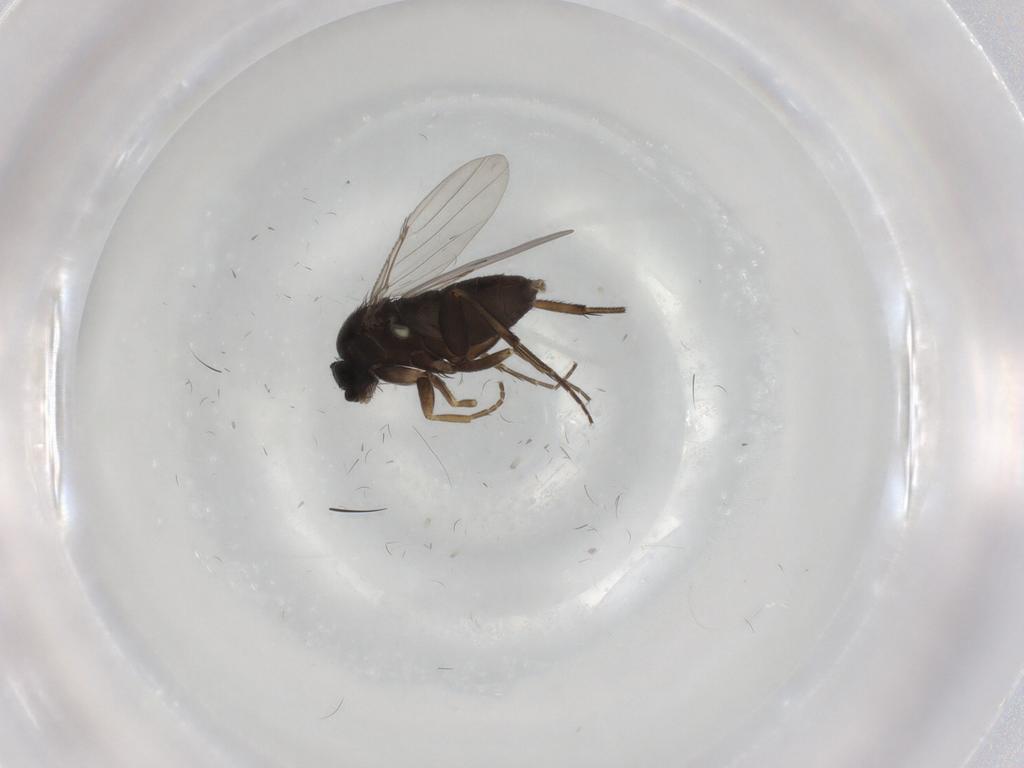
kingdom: Animalia
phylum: Arthropoda
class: Insecta
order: Diptera
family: Phoridae
